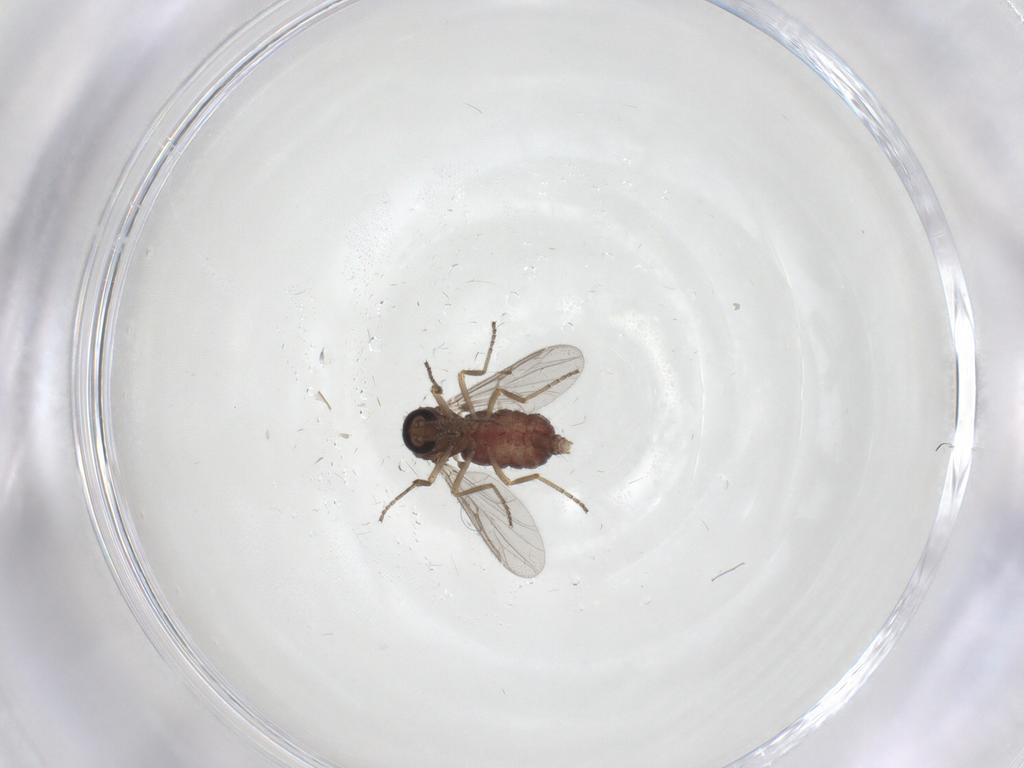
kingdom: Animalia
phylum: Arthropoda
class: Insecta
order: Diptera
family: Ceratopogonidae
